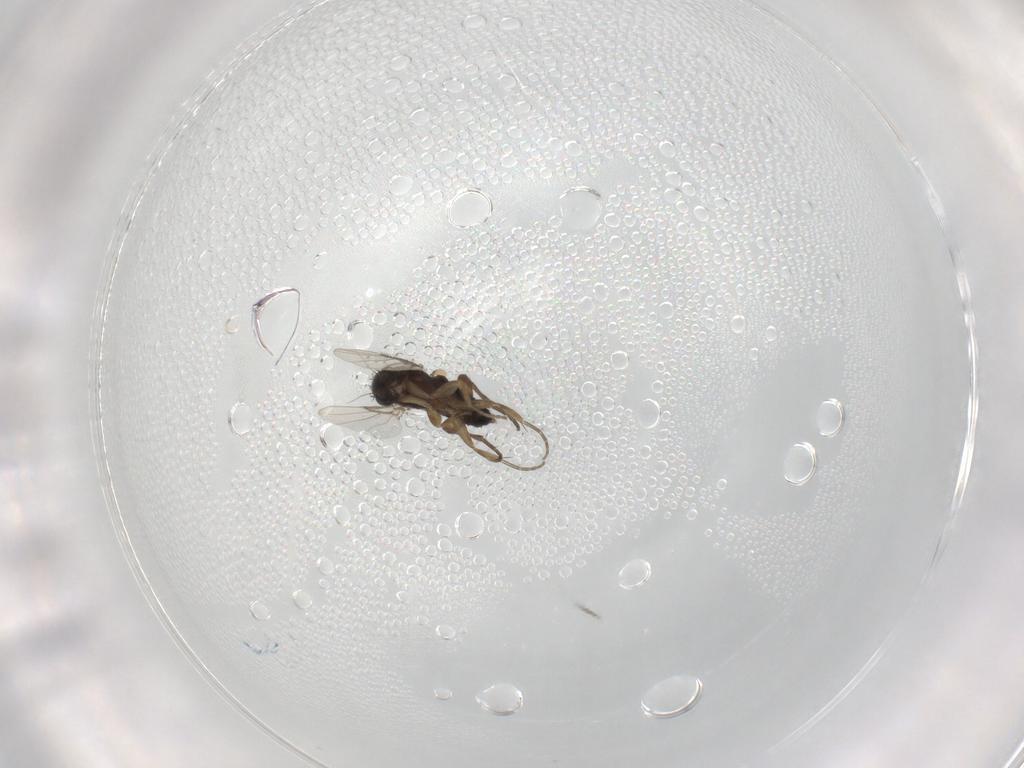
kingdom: Animalia
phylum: Arthropoda
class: Insecta
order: Diptera
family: Phoridae
